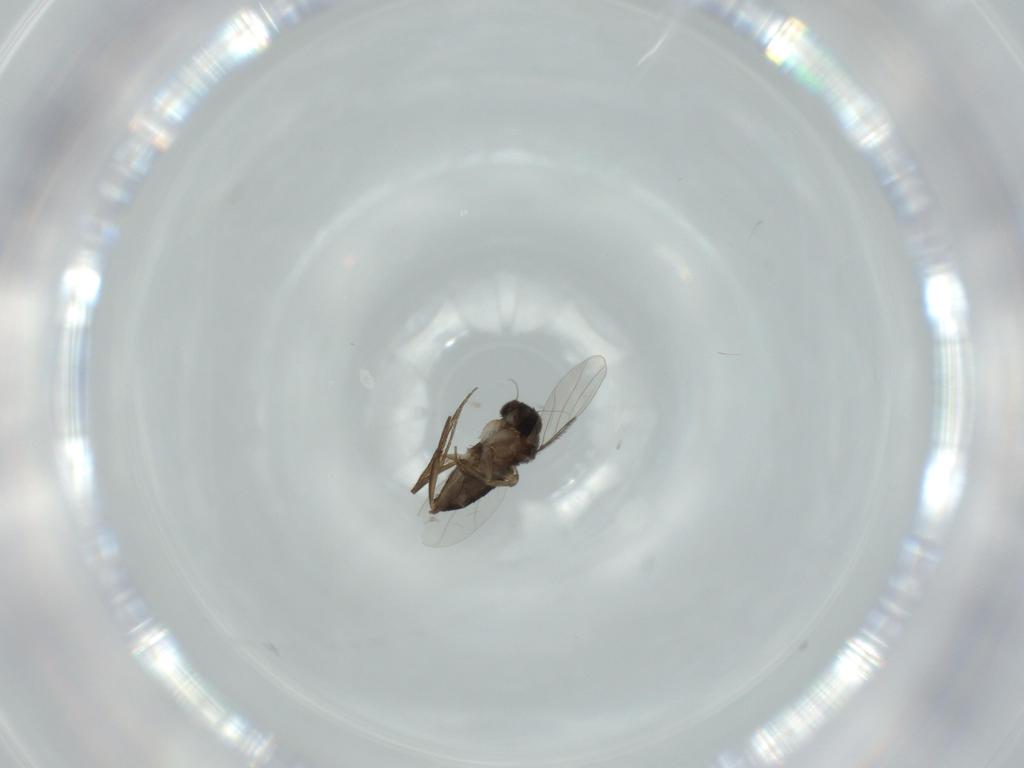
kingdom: Animalia
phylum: Arthropoda
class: Insecta
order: Diptera
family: Phoridae
